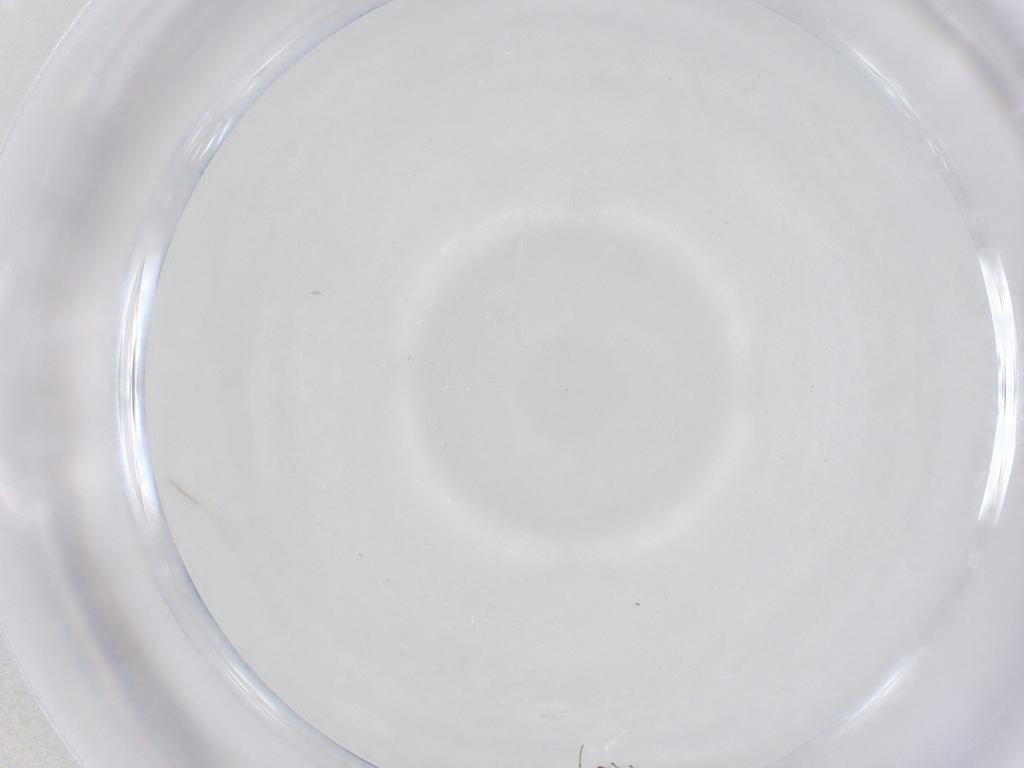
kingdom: Animalia
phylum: Arthropoda
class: Insecta
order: Diptera
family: Ceratopogonidae
